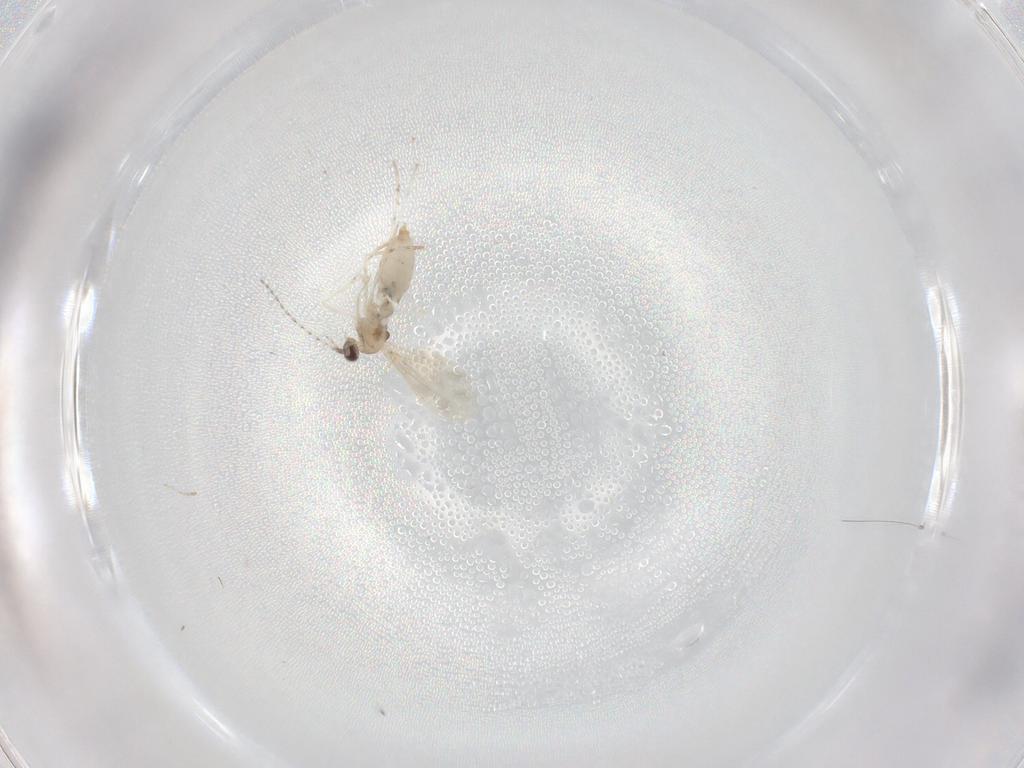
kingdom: Animalia
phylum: Arthropoda
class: Insecta
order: Diptera
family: Cecidomyiidae
